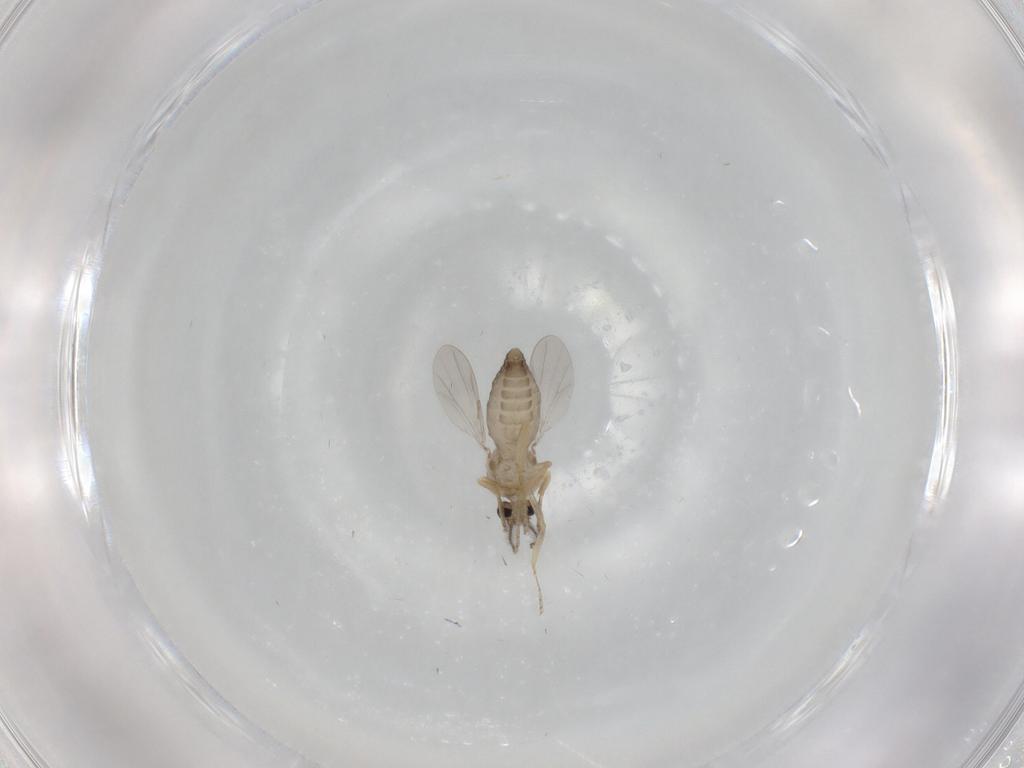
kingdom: Animalia
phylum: Arthropoda
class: Insecta
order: Diptera
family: Ceratopogonidae
